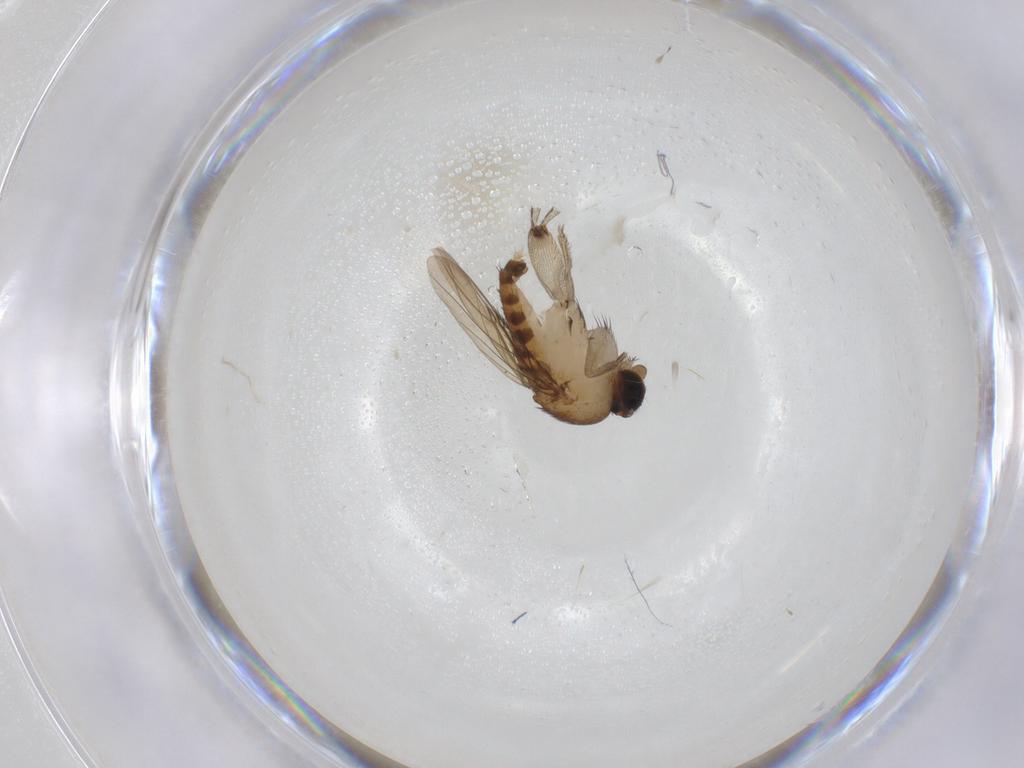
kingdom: Animalia
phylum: Arthropoda
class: Insecta
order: Diptera
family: Phoridae
